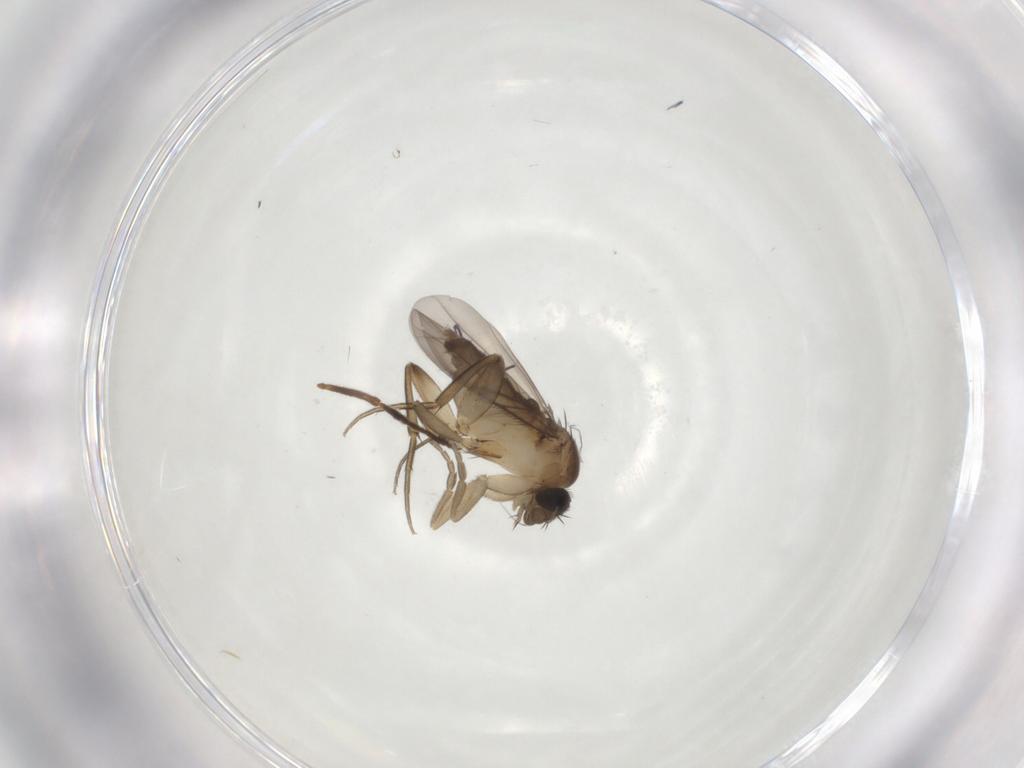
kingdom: Animalia
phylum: Arthropoda
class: Insecta
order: Diptera
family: Phoridae
